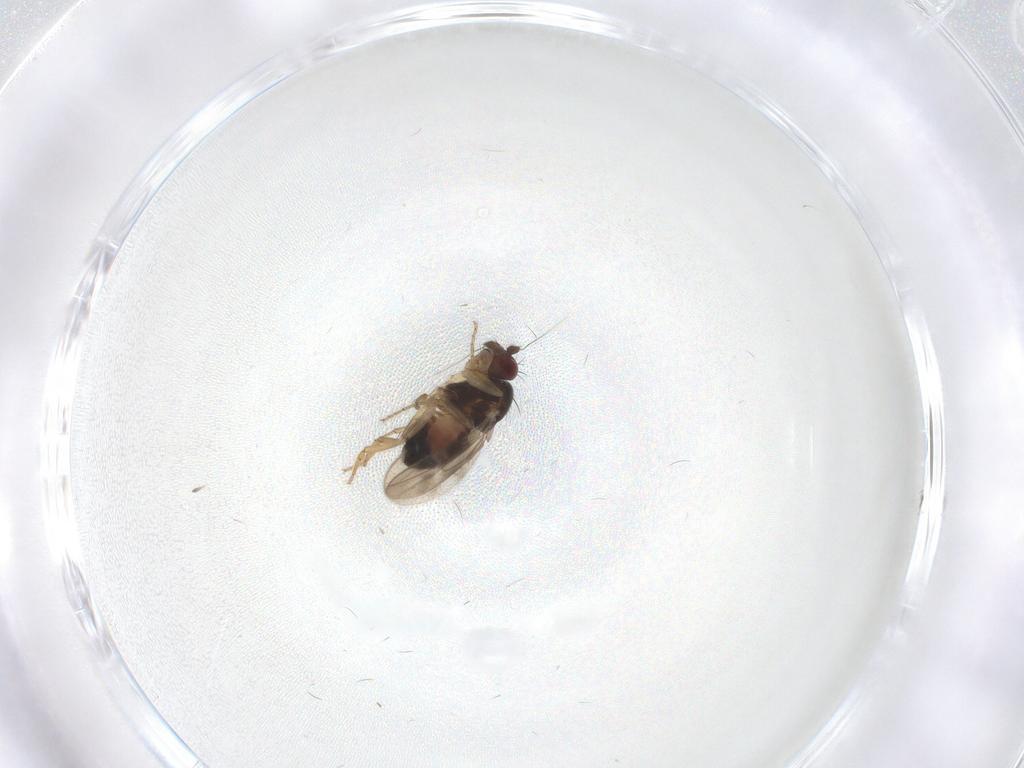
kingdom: Animalia
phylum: Arthropoda
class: Insecta
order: Diptera
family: Sphaeroceridae
